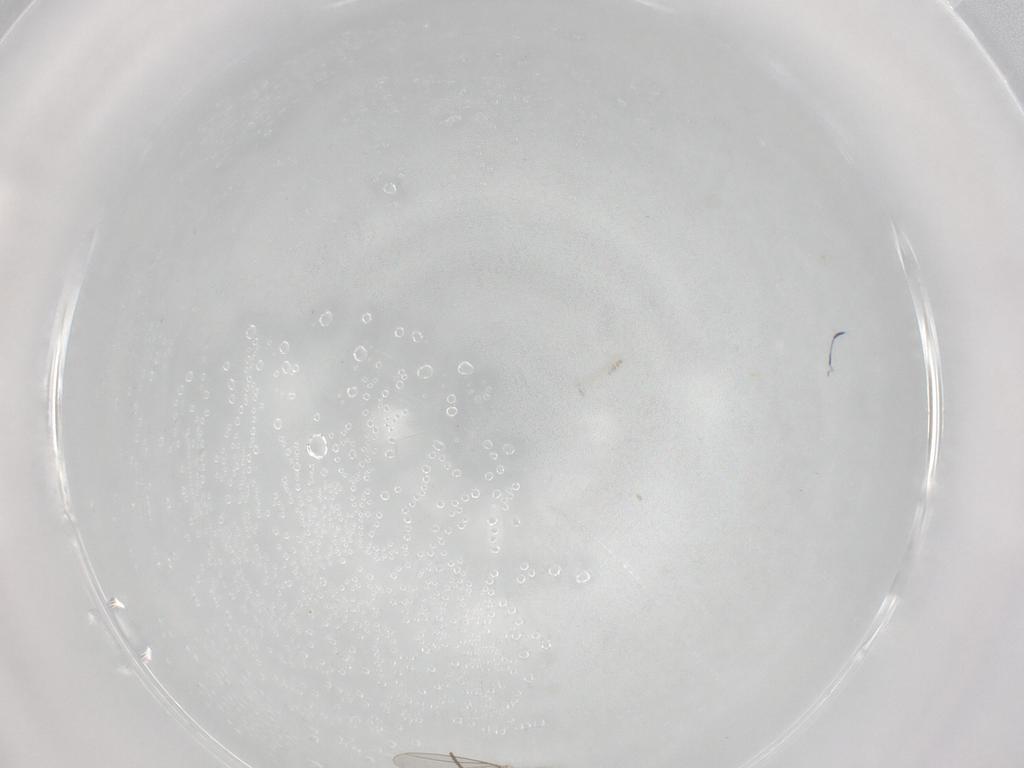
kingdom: Animalia
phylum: Arthropoda
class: Insecta
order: Diptera
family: Cecidomyiidae
